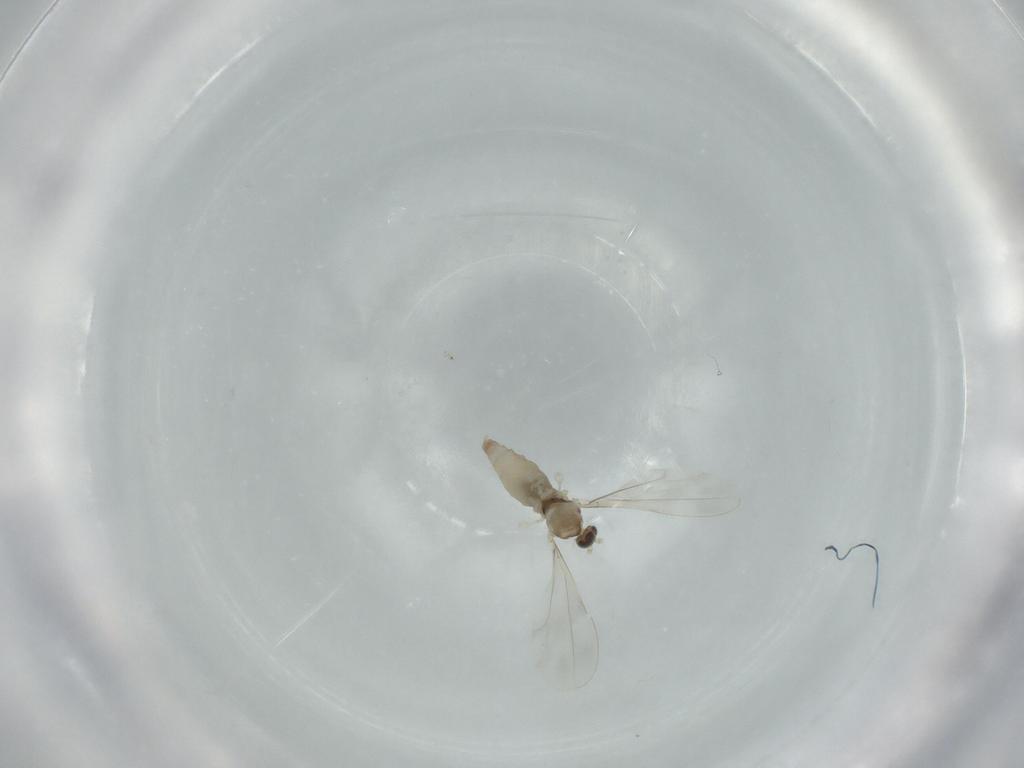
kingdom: Animalia
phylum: Arthropoda
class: Insecta
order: Diptera
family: Cecidomyiidae
